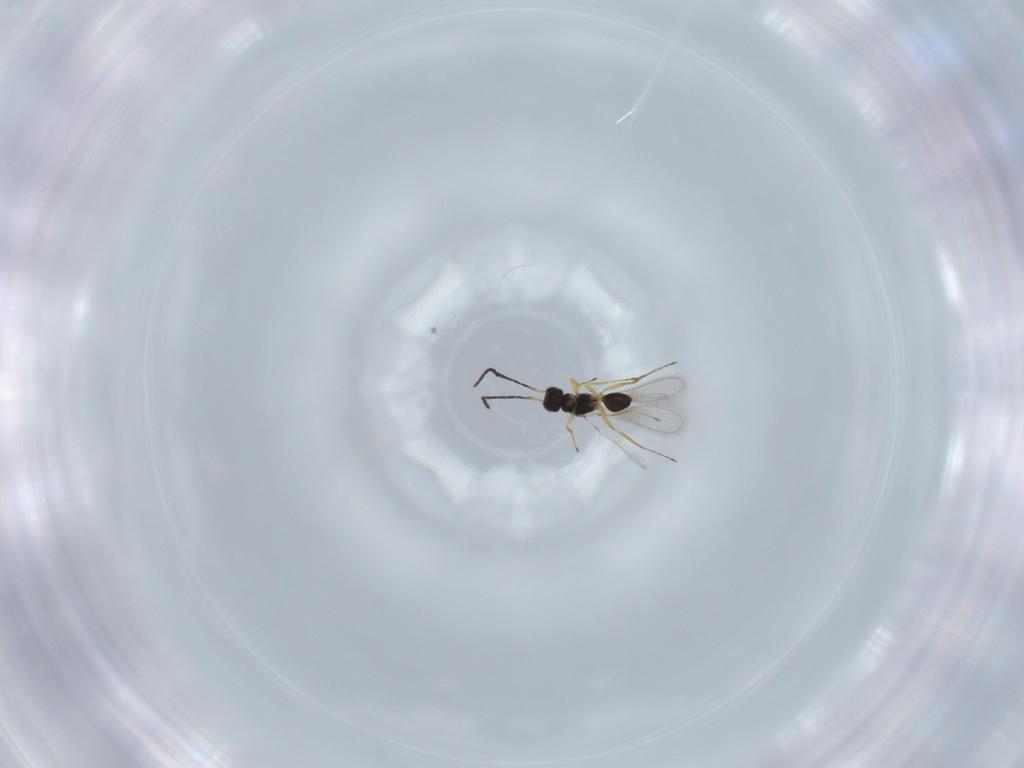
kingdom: Animalia
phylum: Arthropoda
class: Insecta
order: Hymenoptera
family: Mymaridae
